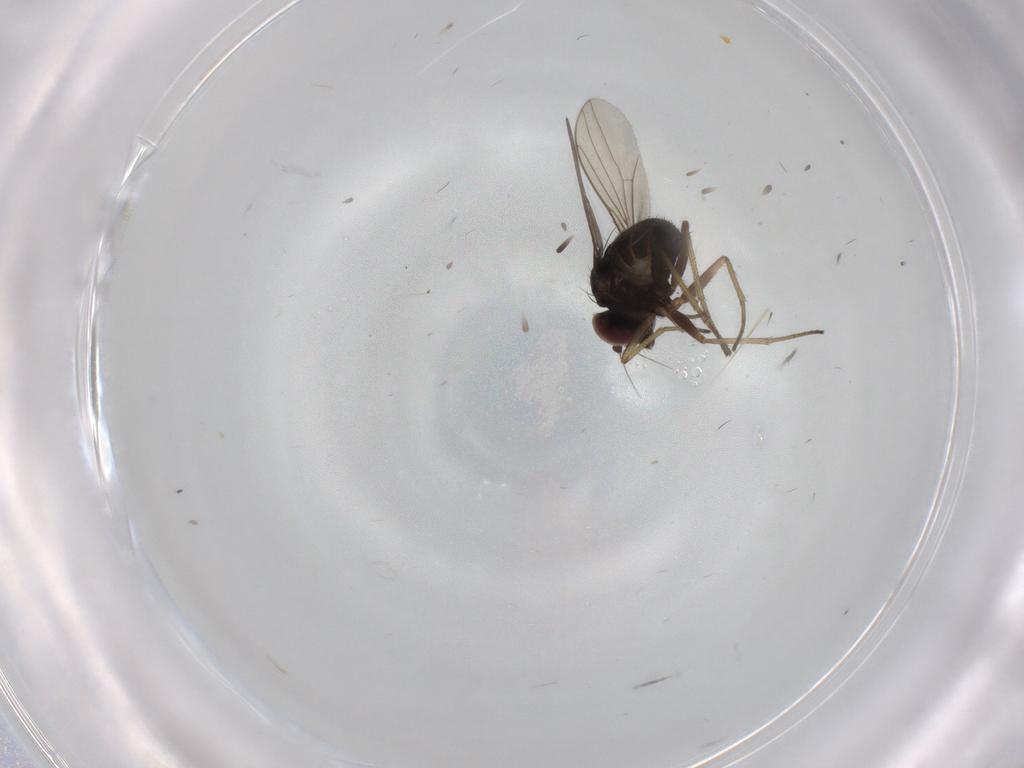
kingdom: Animalia
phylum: Arthropoda
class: Insecta
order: Diptera
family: Dolichopodidae
